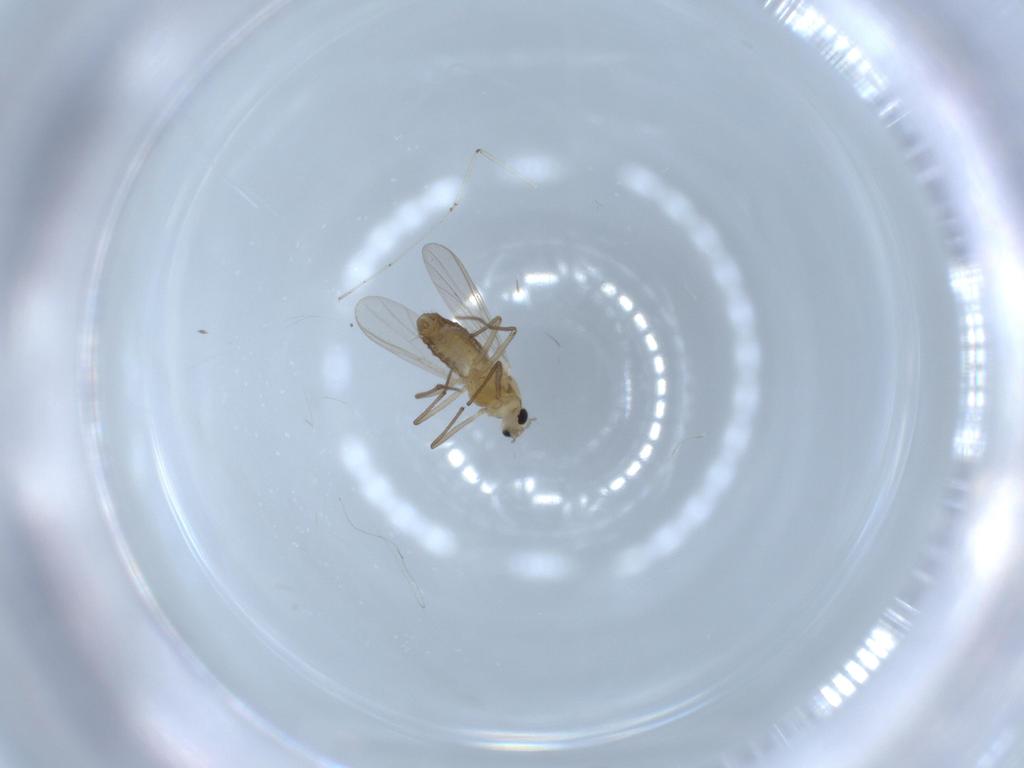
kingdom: Animalia
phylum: Arthropoda
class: Insecta
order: Diptera
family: Chironomidae
